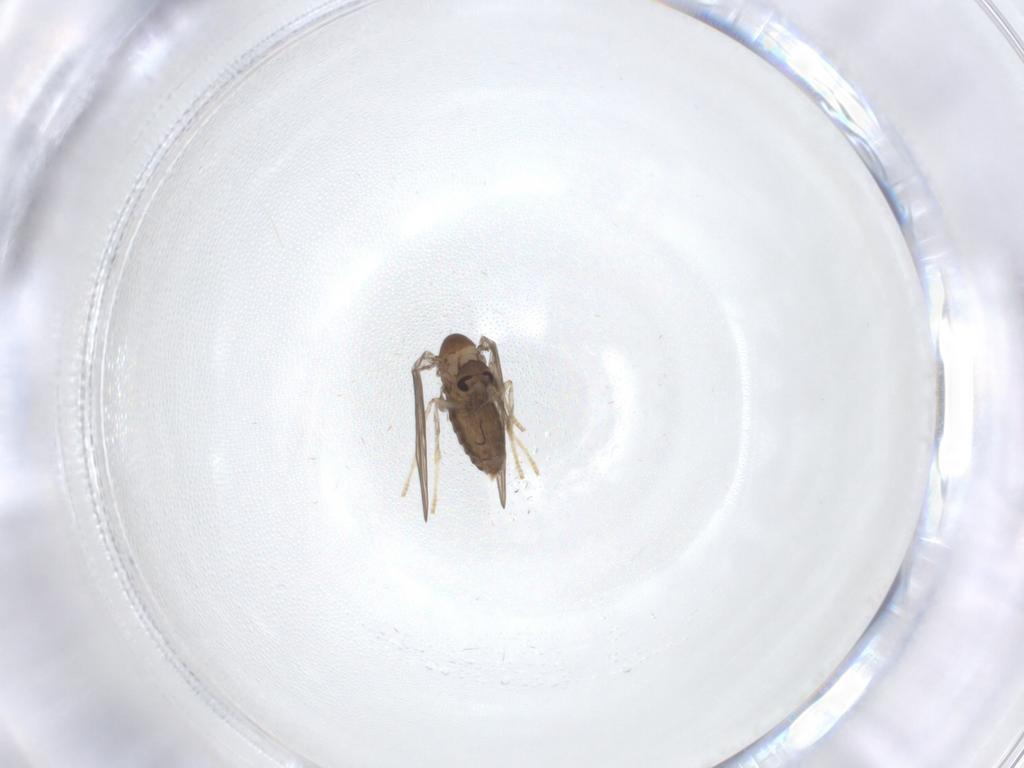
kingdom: Animalia
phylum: Arthropoda
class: Insecta
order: Diptera
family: Psychodidae
